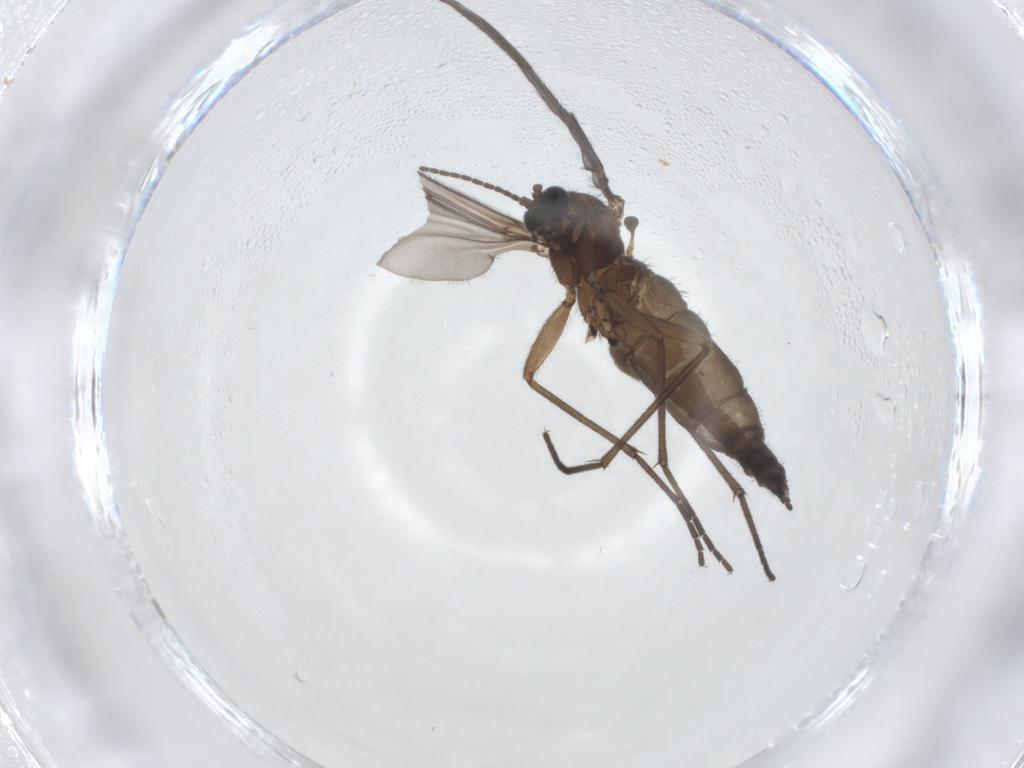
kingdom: Animalia
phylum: Arthropoda
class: Insecta
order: Diptera
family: Sciaridae
